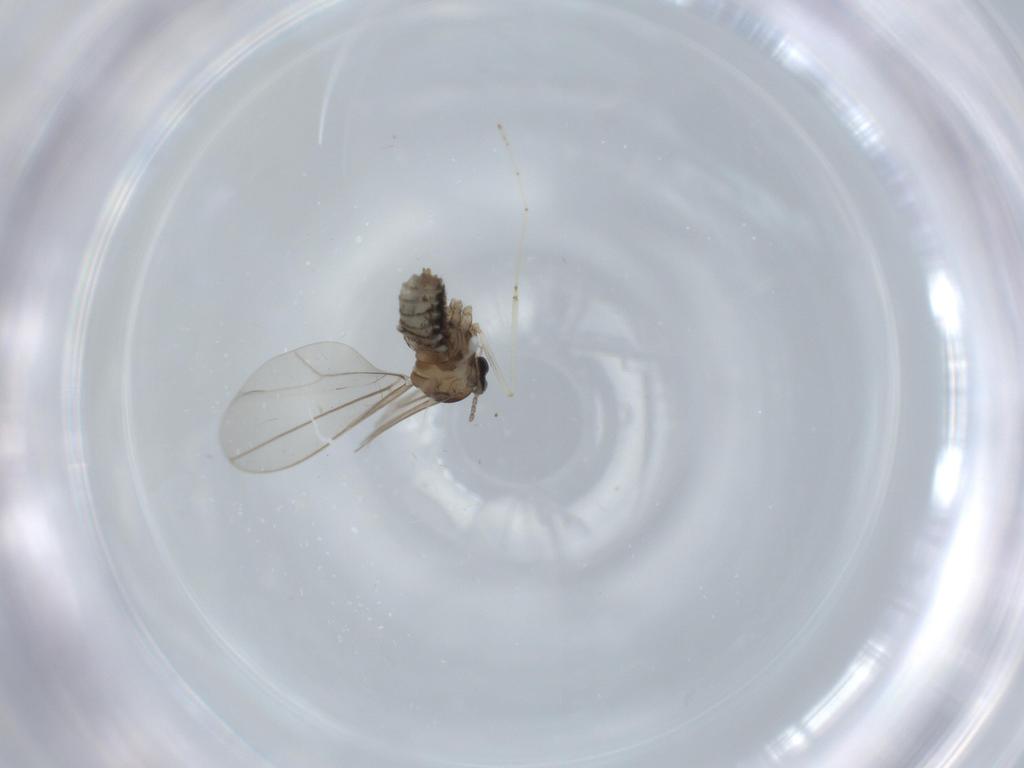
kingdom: Animalia
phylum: Arthropoda
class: Insecta
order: Diptera
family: Cecidomyiidae
